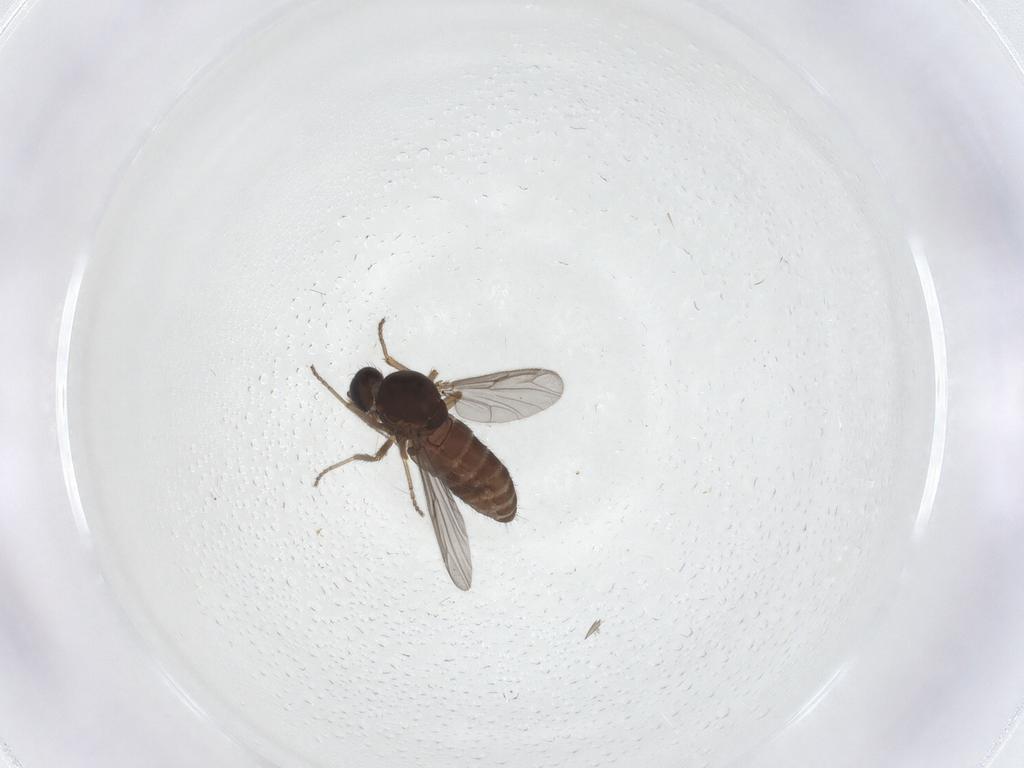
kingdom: Animalia
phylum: Arthropoda
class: Insecta
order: Diptera
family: Ceratopogonidae
